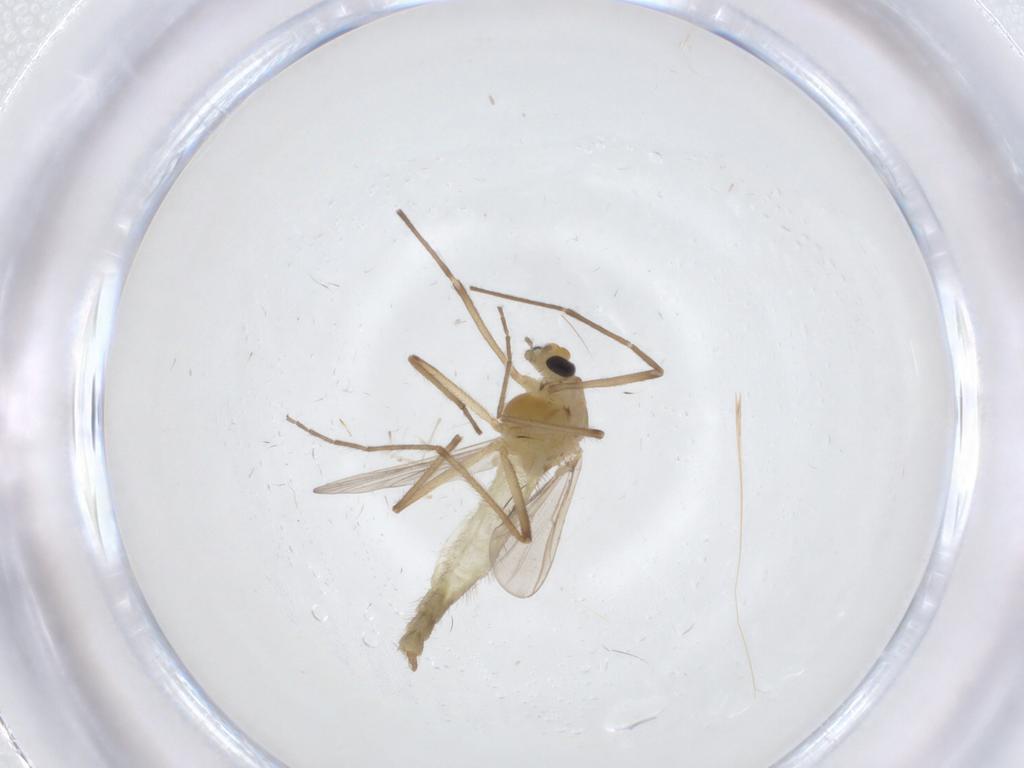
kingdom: Animalia
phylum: Arthropoda
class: Insecta
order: Diptera
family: Chironomidae
